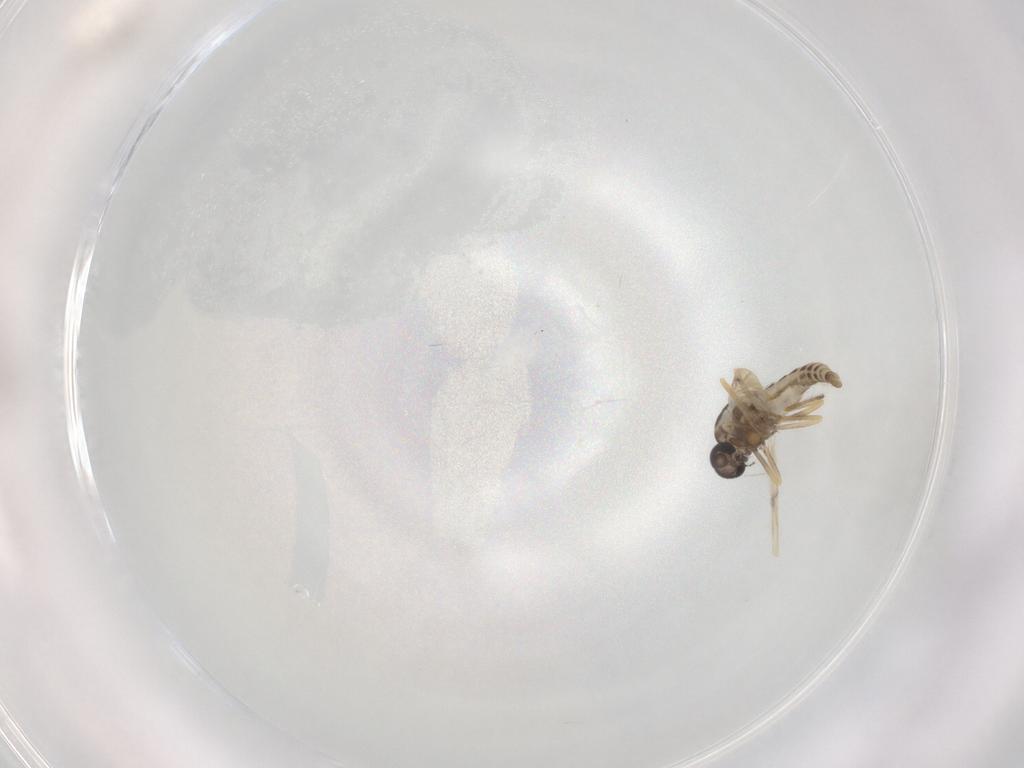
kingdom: Animalia
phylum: Arthropoda
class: Insecta
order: Diptera
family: Ceratopogonidae
